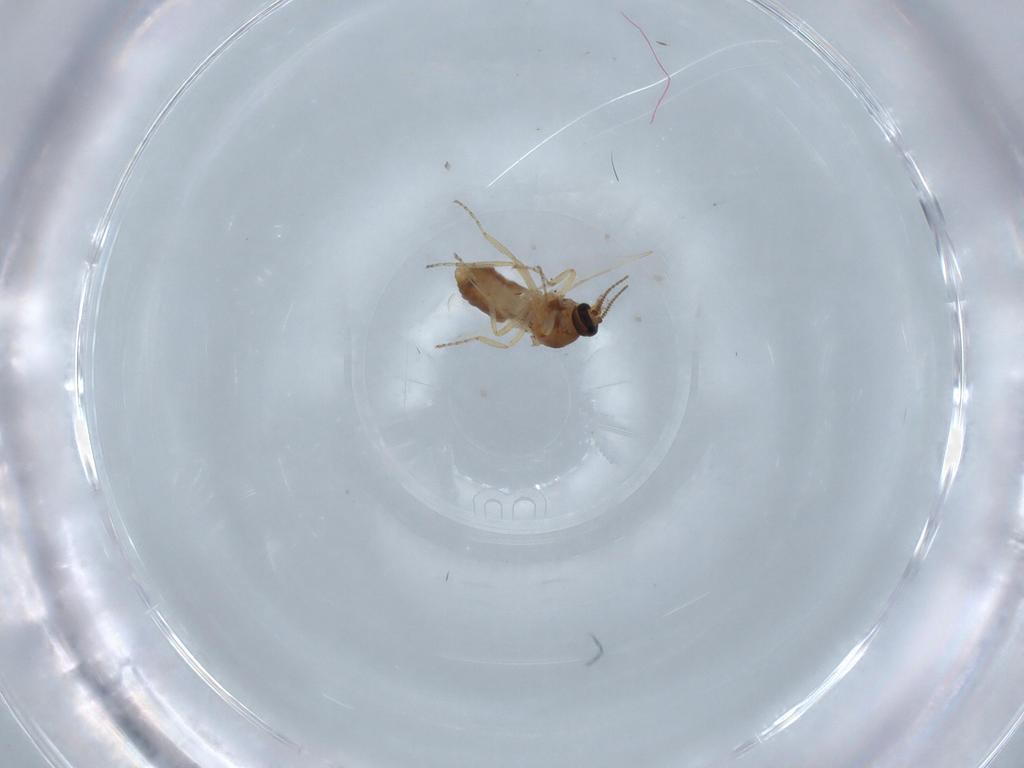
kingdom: Animalia
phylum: Arthropoda
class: Insecta
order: Diptera
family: Ceratopogonidae
